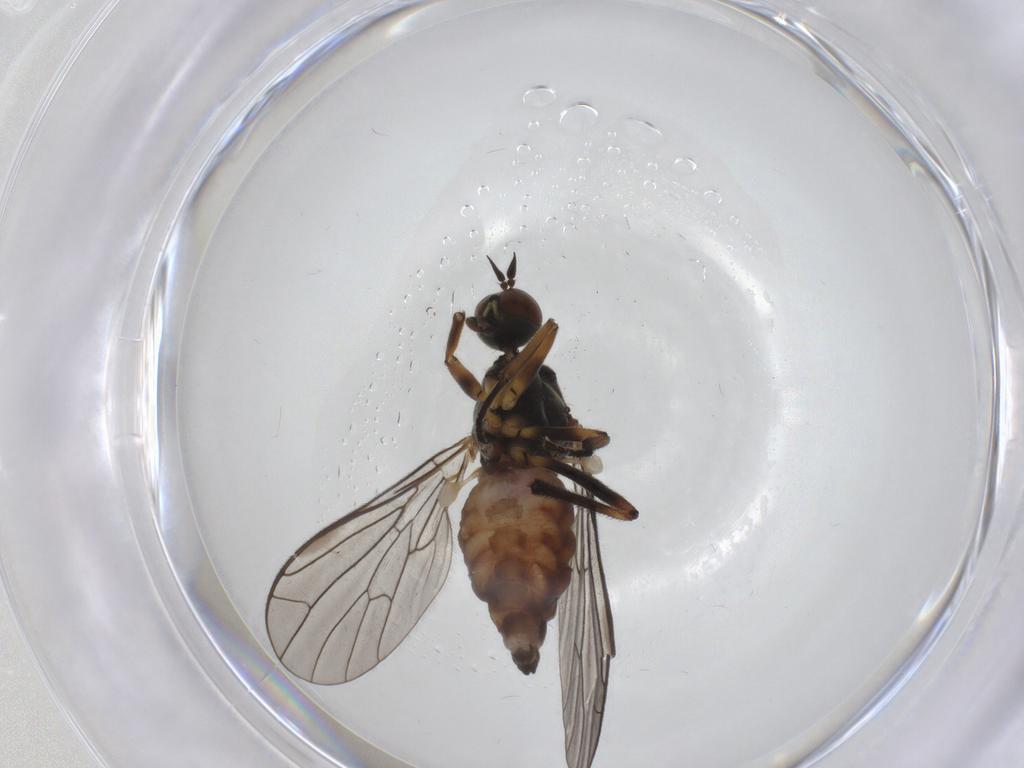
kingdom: Animalia
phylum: Arthropoda
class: Insecta
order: Diptera
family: Empididae
